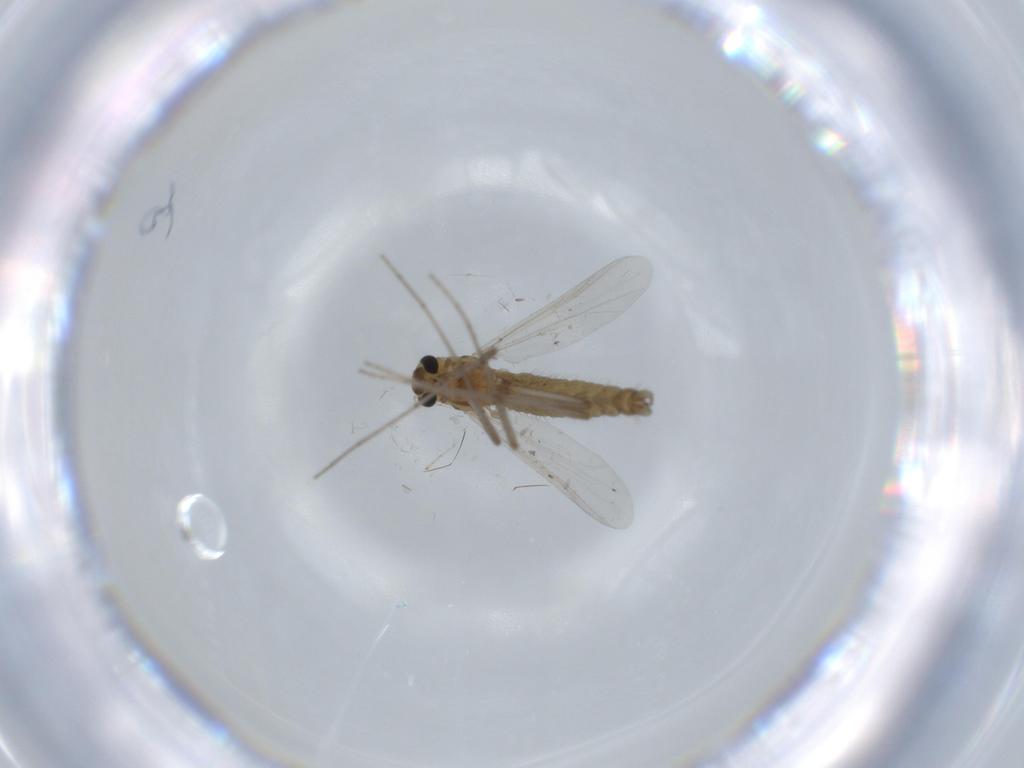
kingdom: Animalia
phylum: Arthropoda
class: Insecta
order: Diptera
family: Chironomidae
